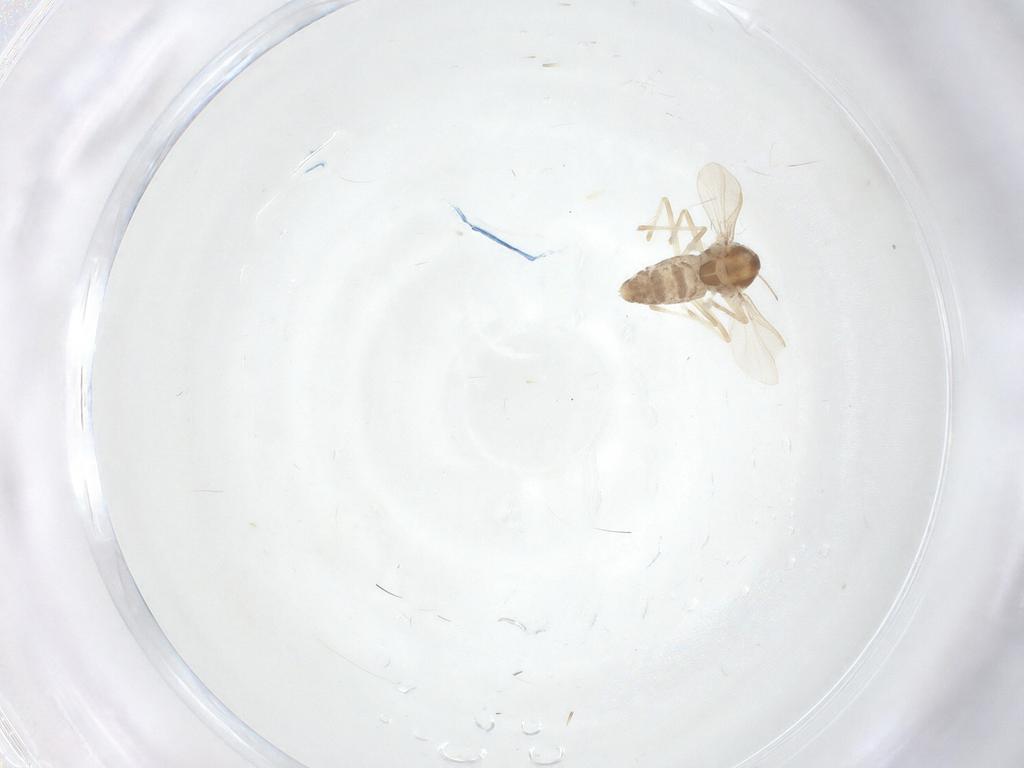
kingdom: Animalia
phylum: Arthropoda
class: Insecta
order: Diptera
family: Chironomidae
